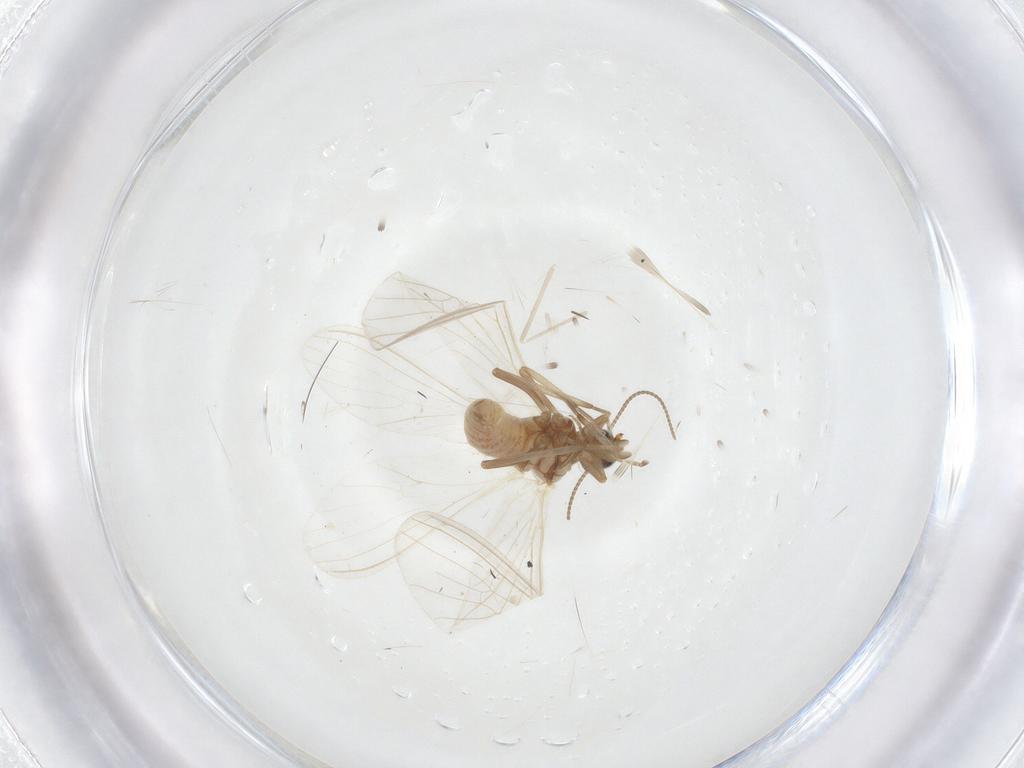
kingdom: Animalia
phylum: Arthropoda
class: Insecta
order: Neuroptera
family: Coniopterygidae
